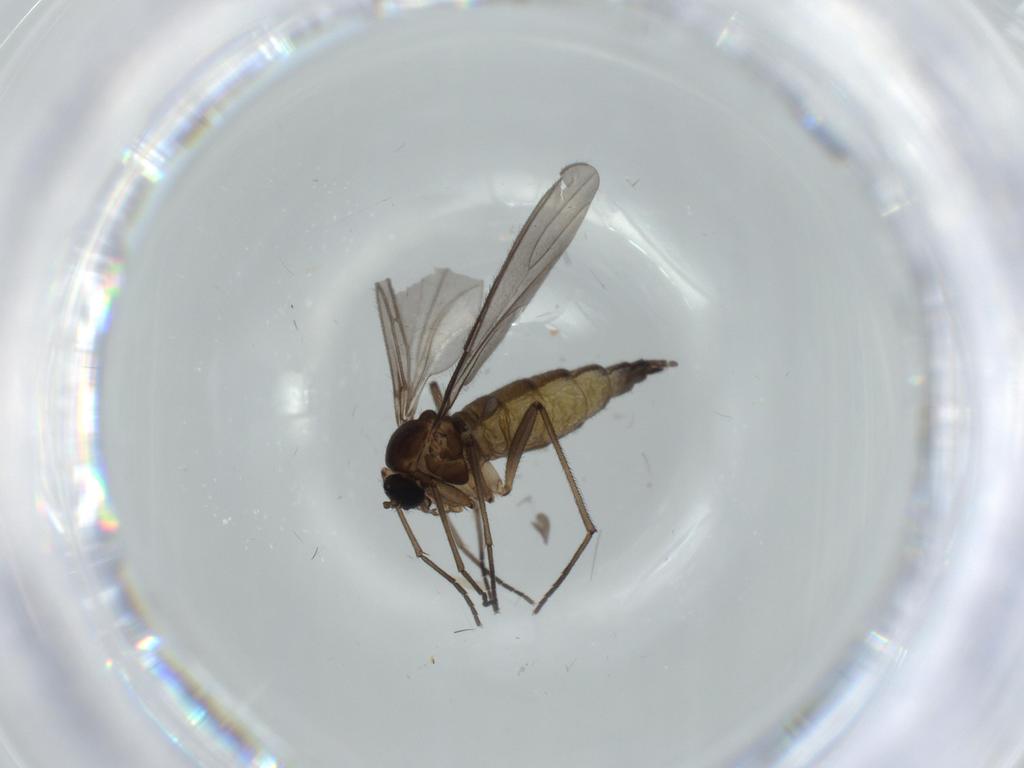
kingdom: Animalia
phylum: Arthropoda
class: Insecta
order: Diptera
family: Sciaridae
